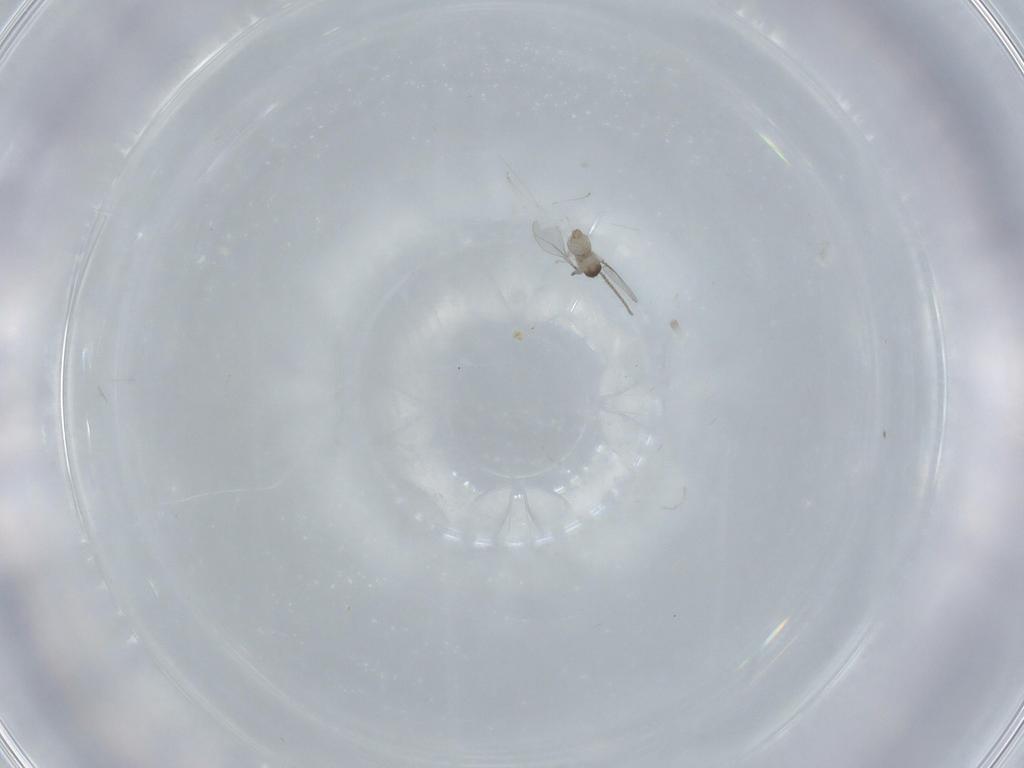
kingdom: Animalia
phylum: Arthropoda
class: Insecta
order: Diptera
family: Cecidomyiidae
